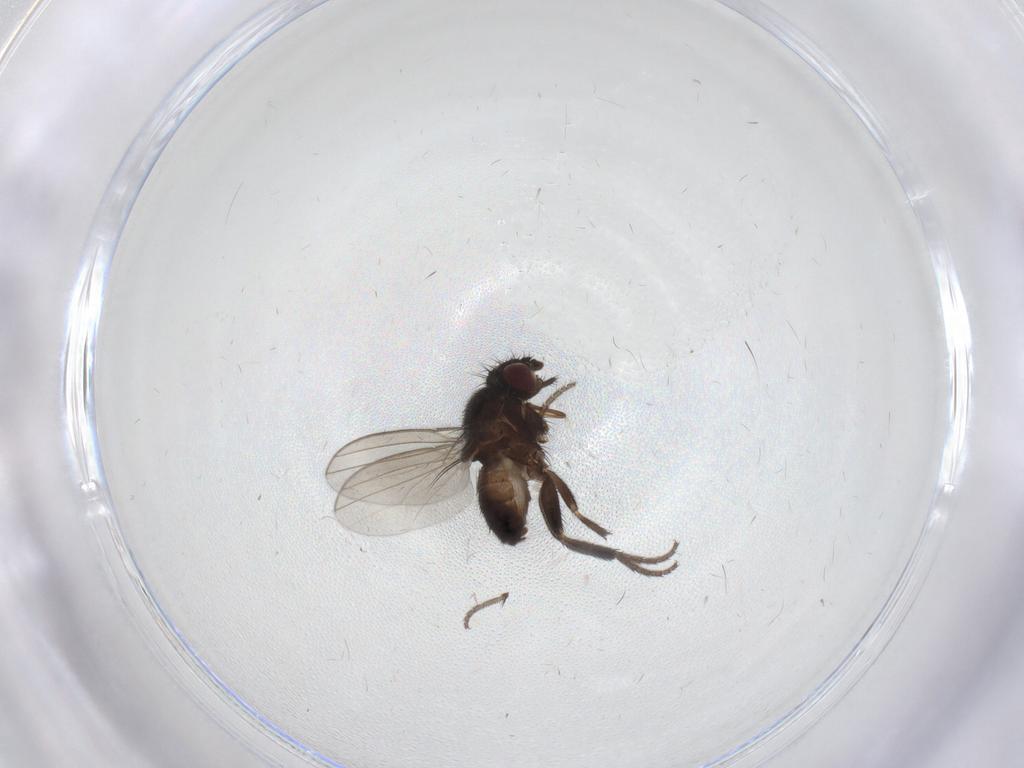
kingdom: Animalia
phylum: Arthropoda
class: Insecta
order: Diptera
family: Milichiidae
